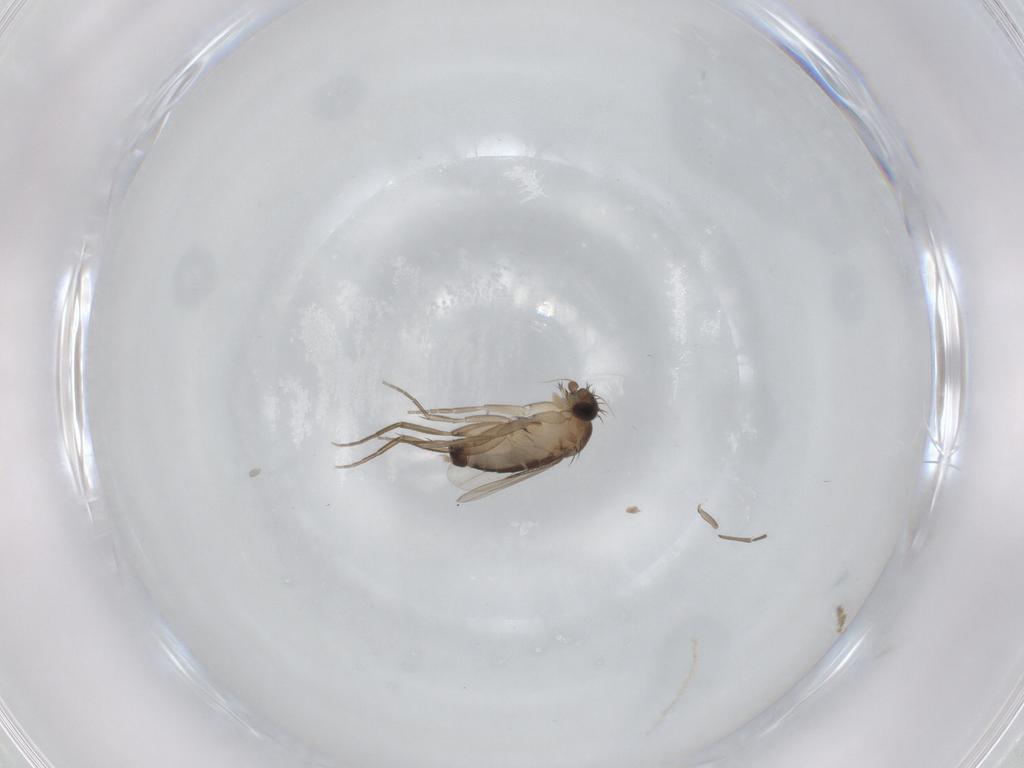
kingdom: Animalia
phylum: Arthropoda
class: Insecta
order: Diptera
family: Phoridae
